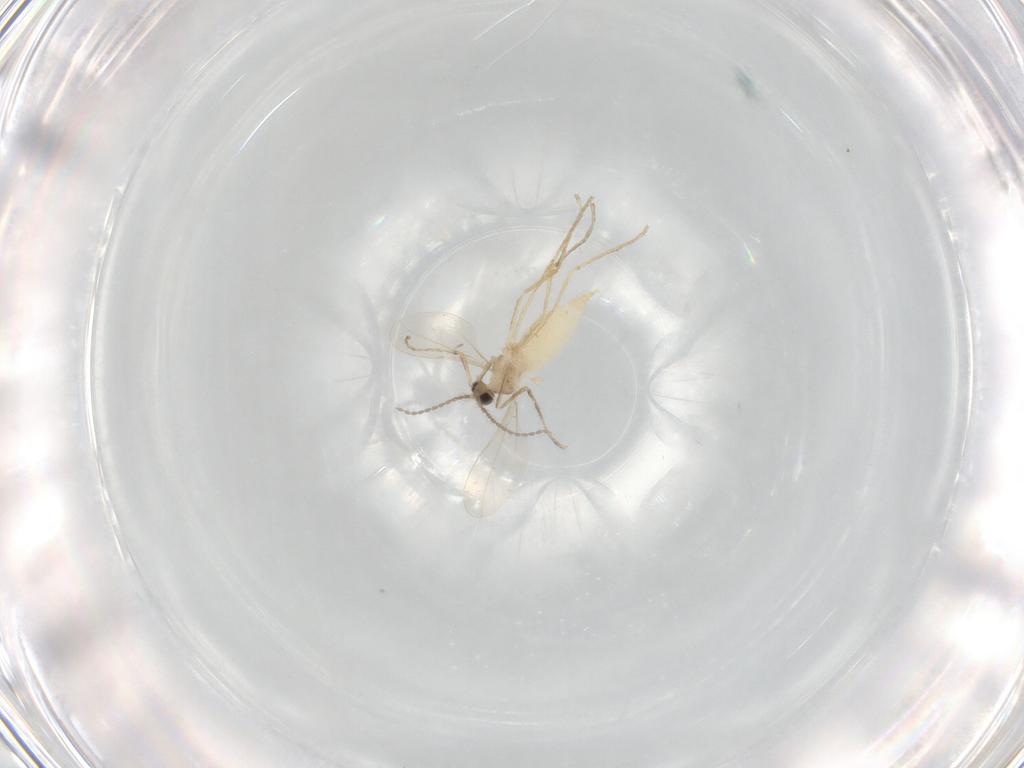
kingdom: Animalia
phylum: Arthropoda
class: Insecta
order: Diptera
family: Cecidomyiidae
